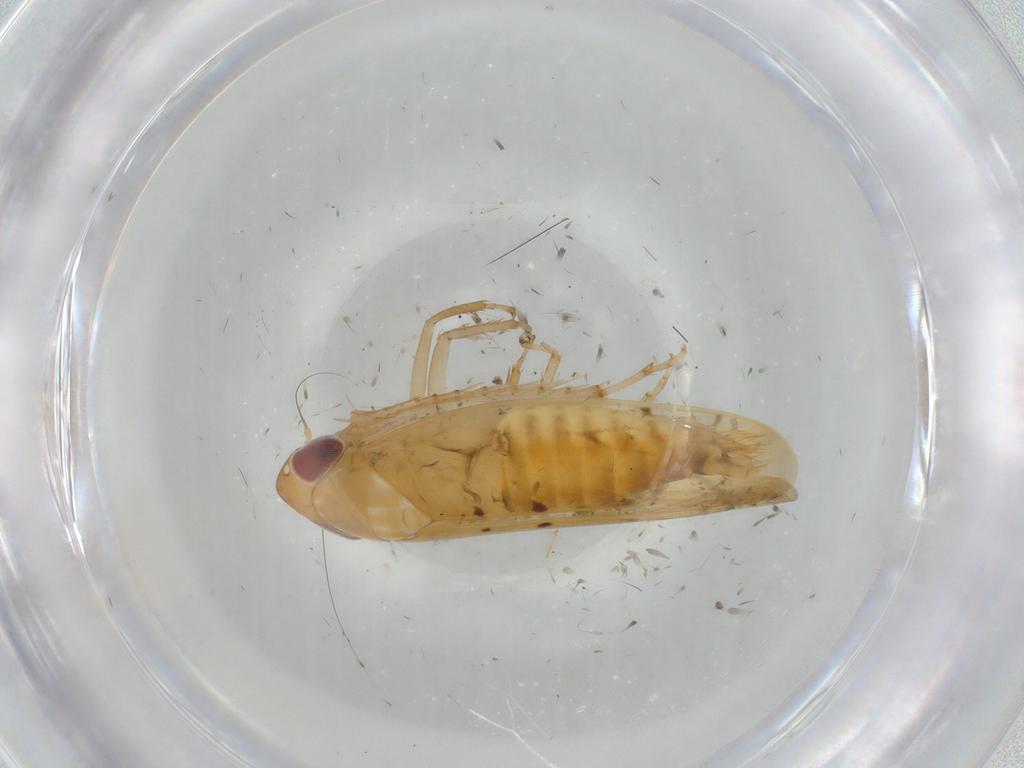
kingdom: Animalia
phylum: Arthropoda
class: Insecta
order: Hemiptera
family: Cicadellidae
